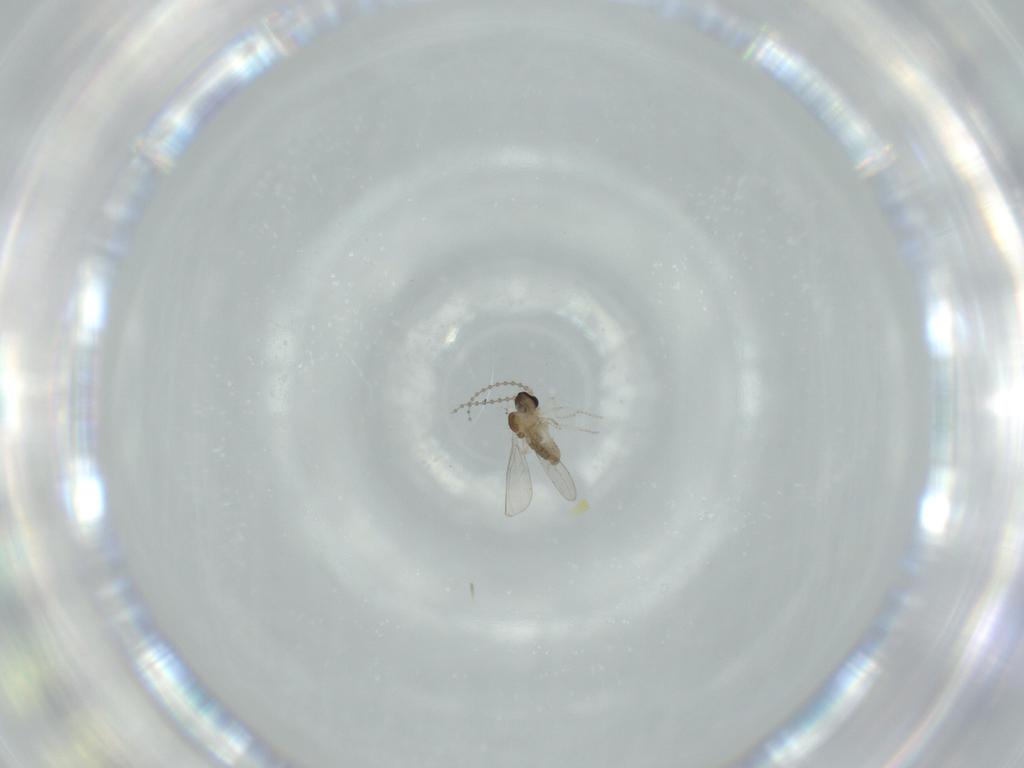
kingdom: Animalia
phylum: Arthropoda
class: Insecta
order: Diptera
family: Cecidomyiidae
